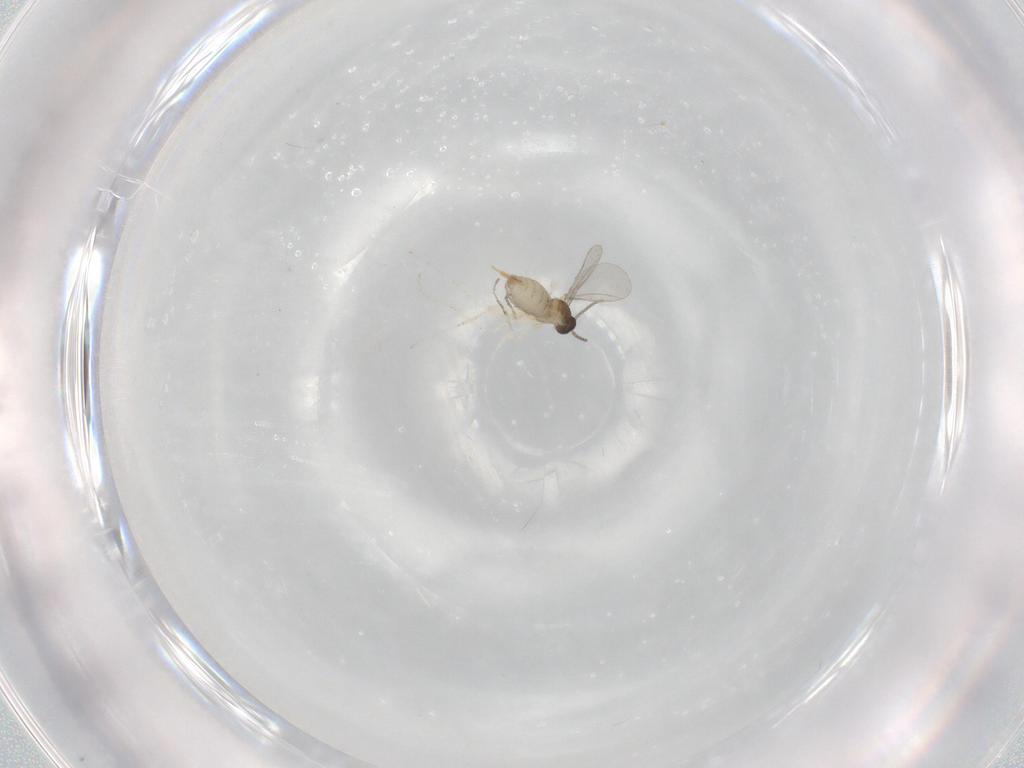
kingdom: Animalia
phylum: Arthropoda
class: Insecta
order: Diptera
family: Cecidomyiidae
